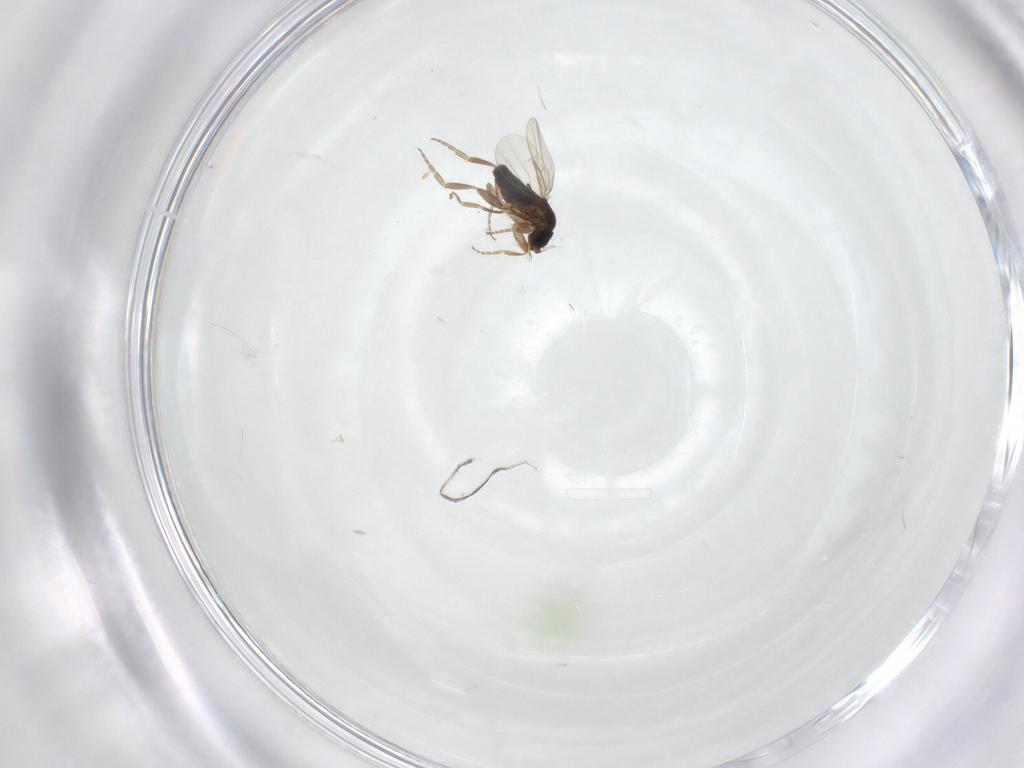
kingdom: Animalia
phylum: Arthropoda
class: Insecta
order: Diptera
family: Phoridae
